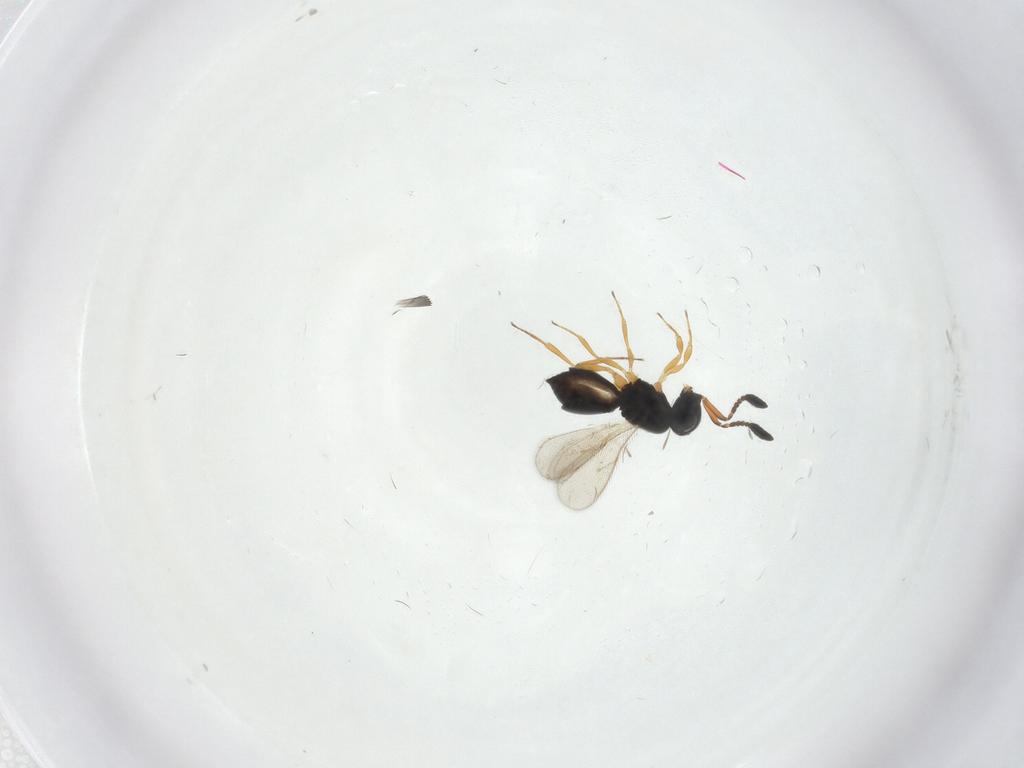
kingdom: Animalia
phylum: Arthropoda
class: Insecta
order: Hymenoptera
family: Scelionidae
